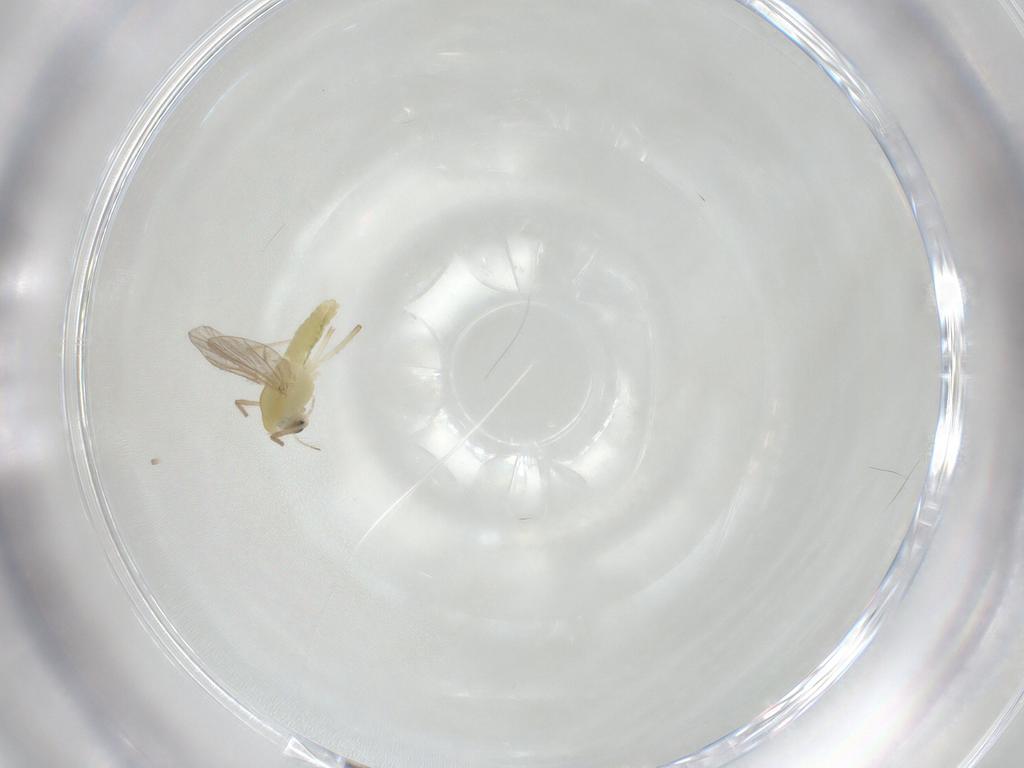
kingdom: Animalia
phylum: Arthropoda
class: Insecta
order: Diptera
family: Chironomidae
